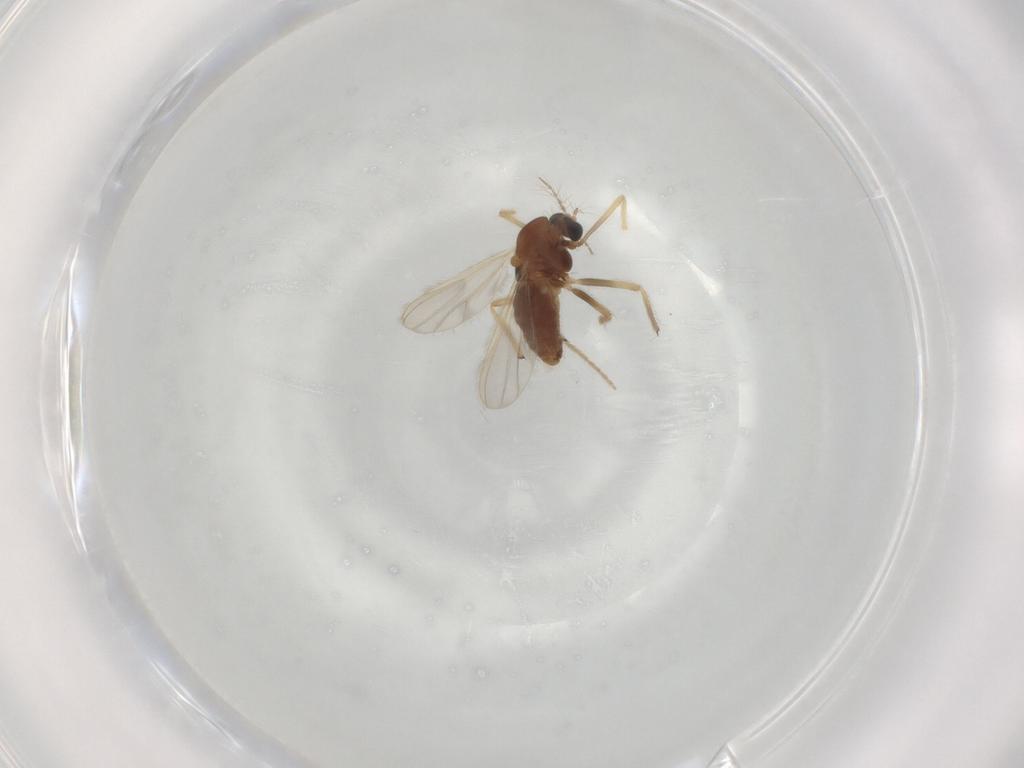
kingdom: Animalia
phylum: Arthropoda
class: Insecta
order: Diptera
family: Chironomidae
